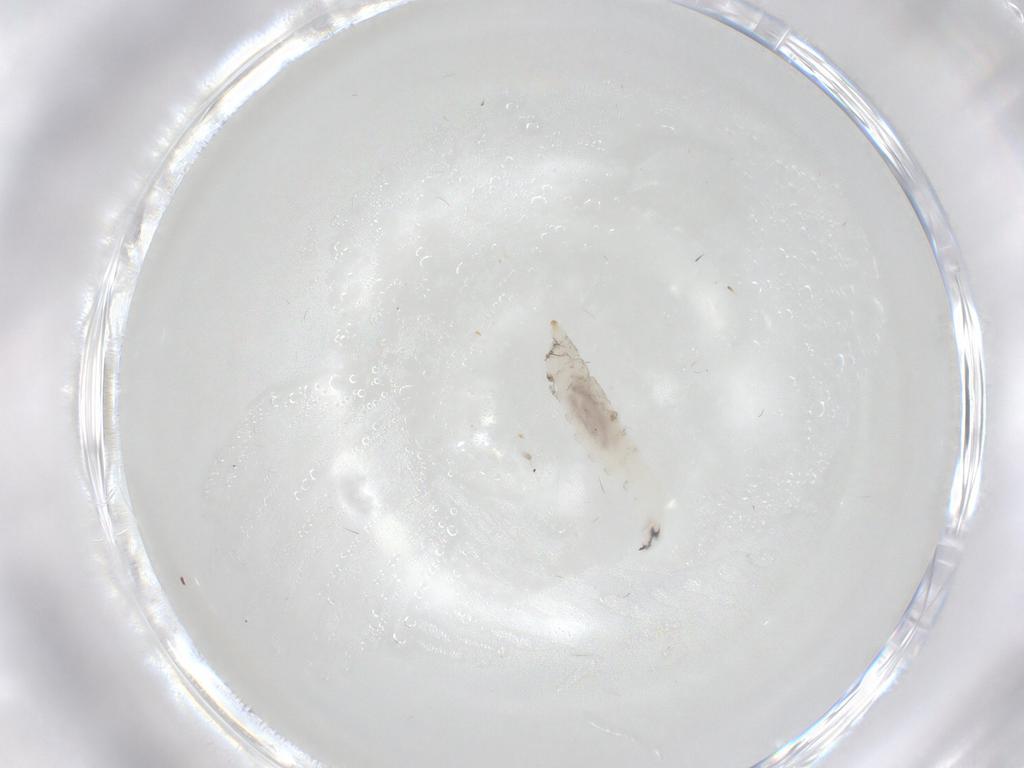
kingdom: Animalia
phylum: Arthropoda
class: Insecta
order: Diptera
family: Drosophilidae
